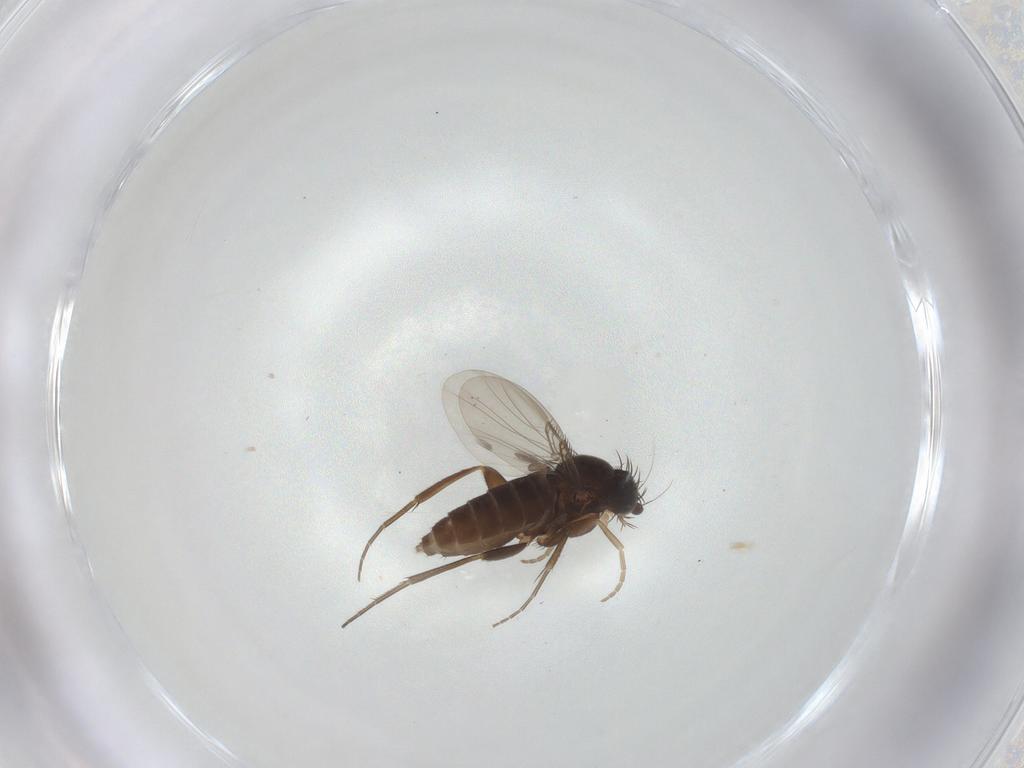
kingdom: Animalia
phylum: Arthropoda
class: Insecta
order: Diptera
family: Phoridae
